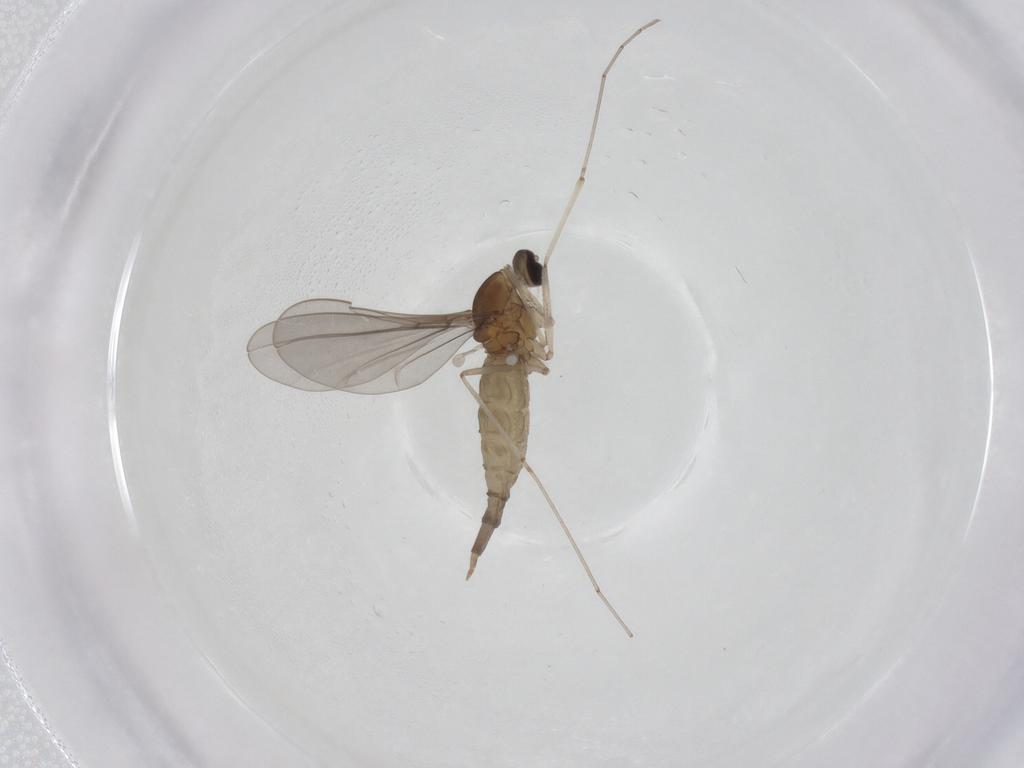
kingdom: Animalia
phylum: Arthropoda
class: Insecta
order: Diptera
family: Cecidomyiidae
